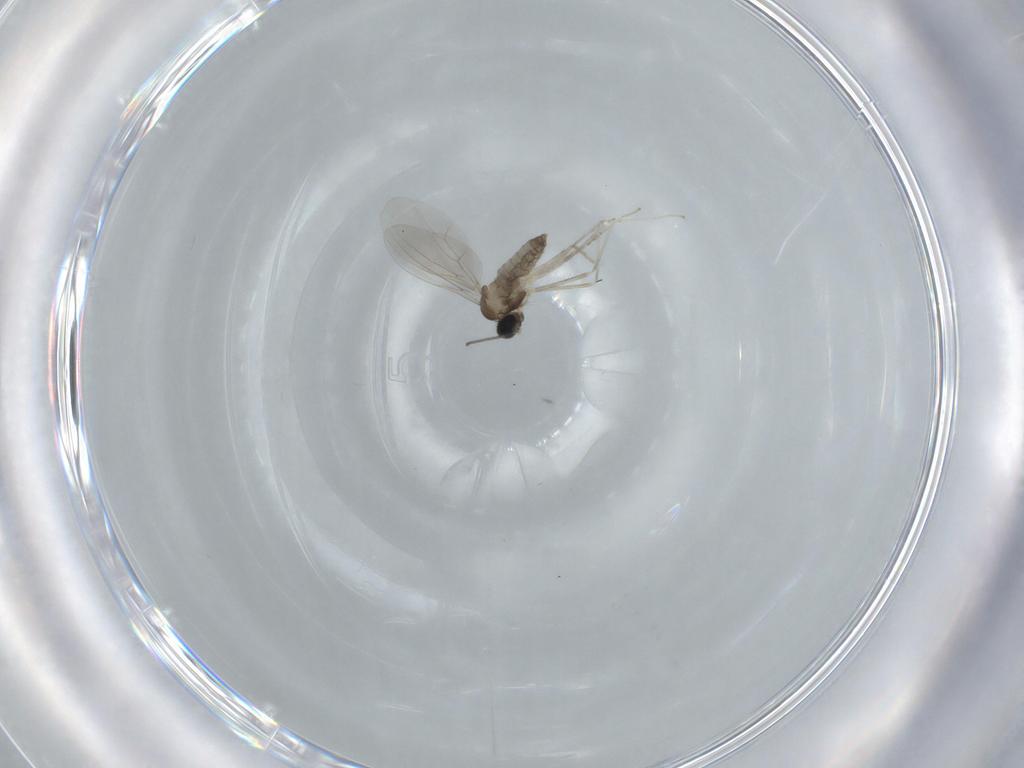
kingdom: Animalia
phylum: Arthropoda
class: Insecta
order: Diptera
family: Cecidomyiidae
